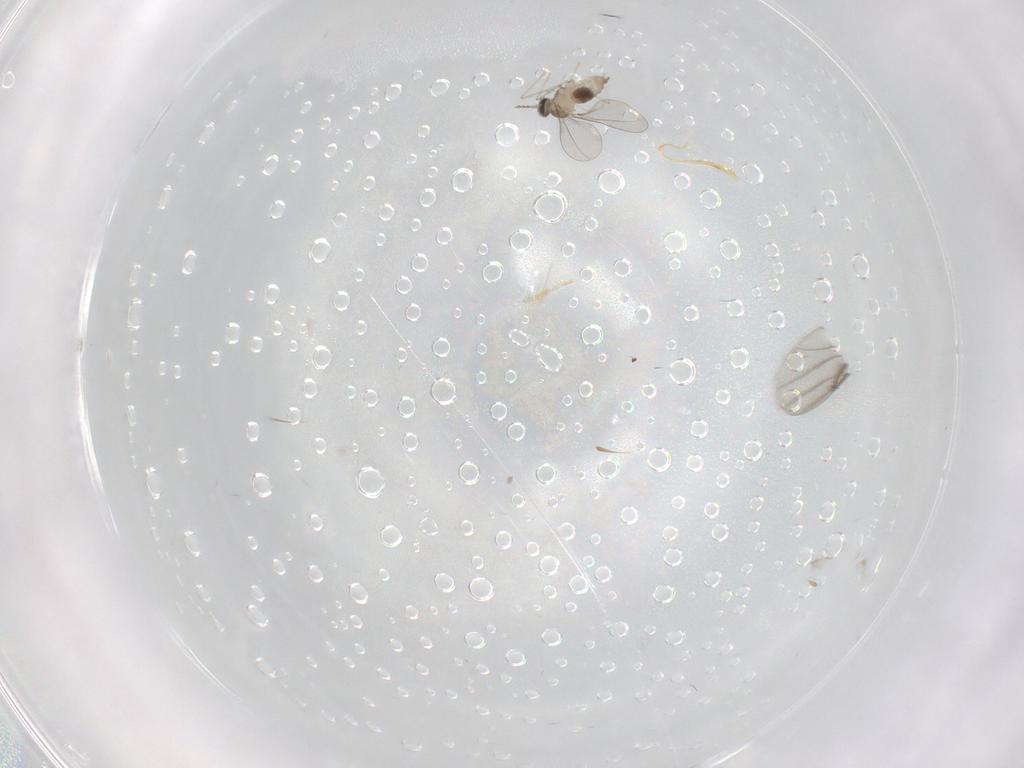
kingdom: Animalia
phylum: Arthropoda
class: Insecta
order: Diptera
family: Phoridae
